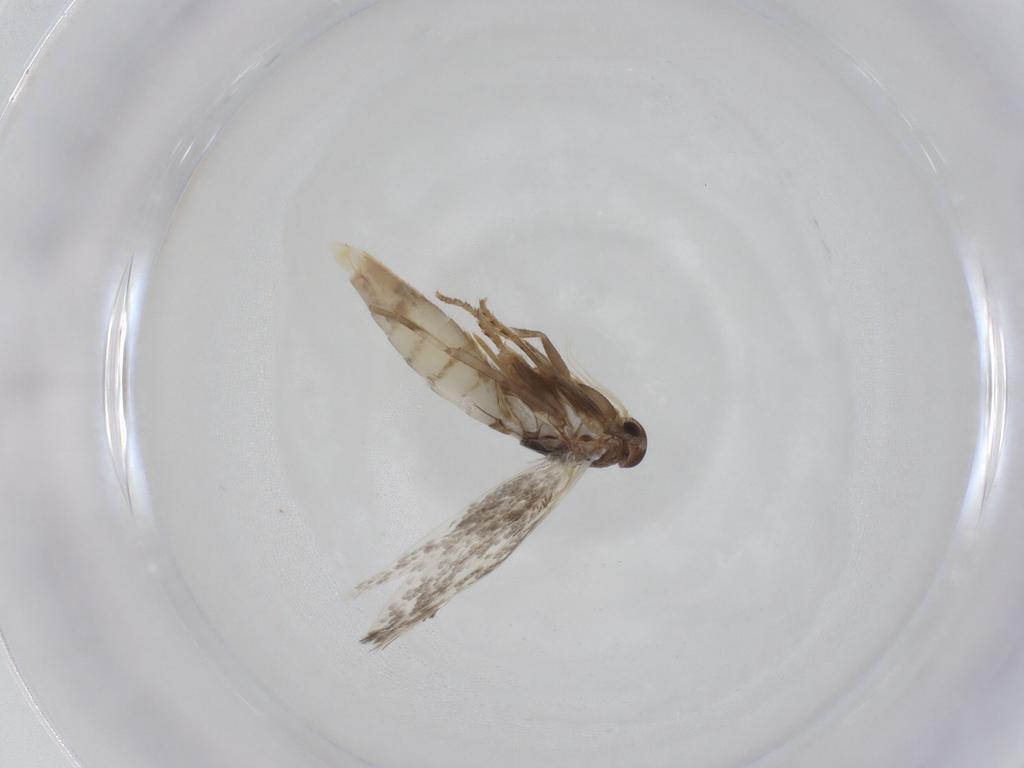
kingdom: Animalia
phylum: Arthropoda
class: Insecta
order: Lepidoptera
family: Elachistidae
